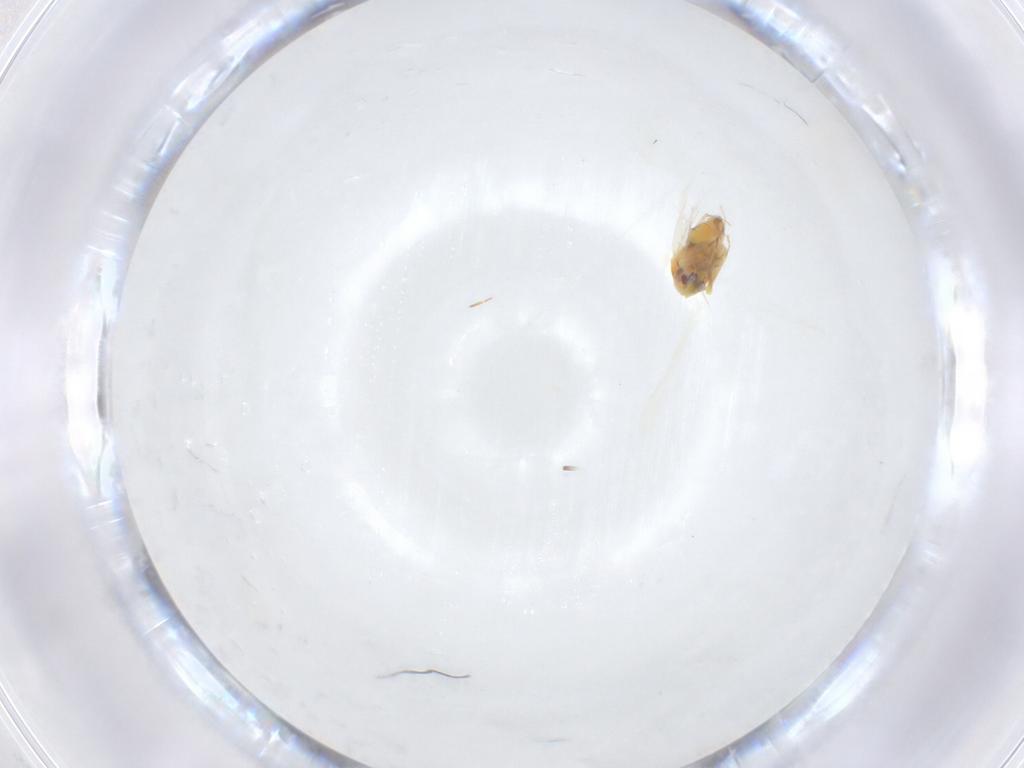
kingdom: Animalia
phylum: Arthropoda
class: Insecta
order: Hemiptera
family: Aleyrodidae
